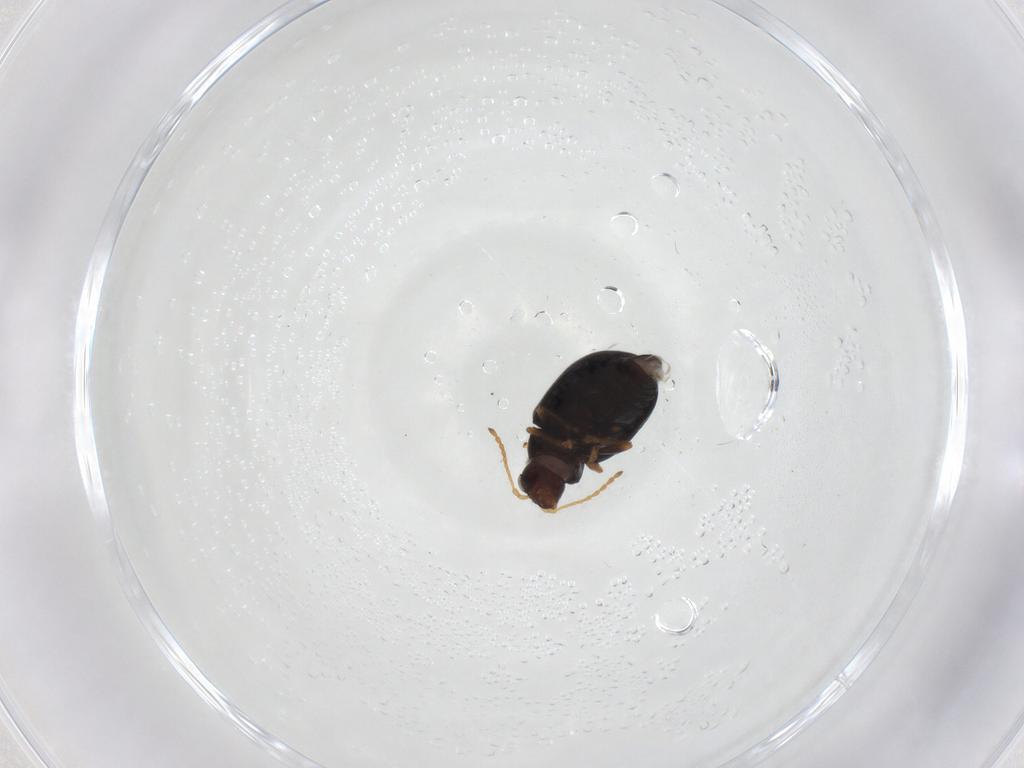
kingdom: Animalia
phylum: Arthropoda
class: Insecta
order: Coleoptera
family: Chrysomelidae
